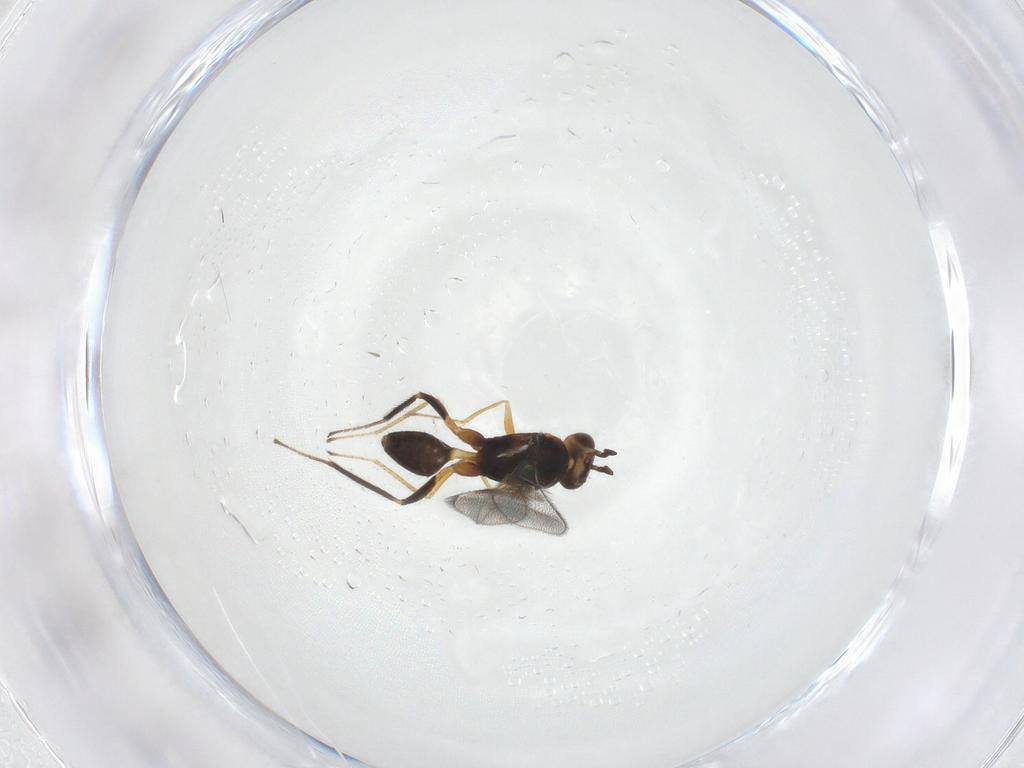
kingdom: Animalia
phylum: Arthropoda
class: Insecta
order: Hymenoptera
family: Mymaridae
